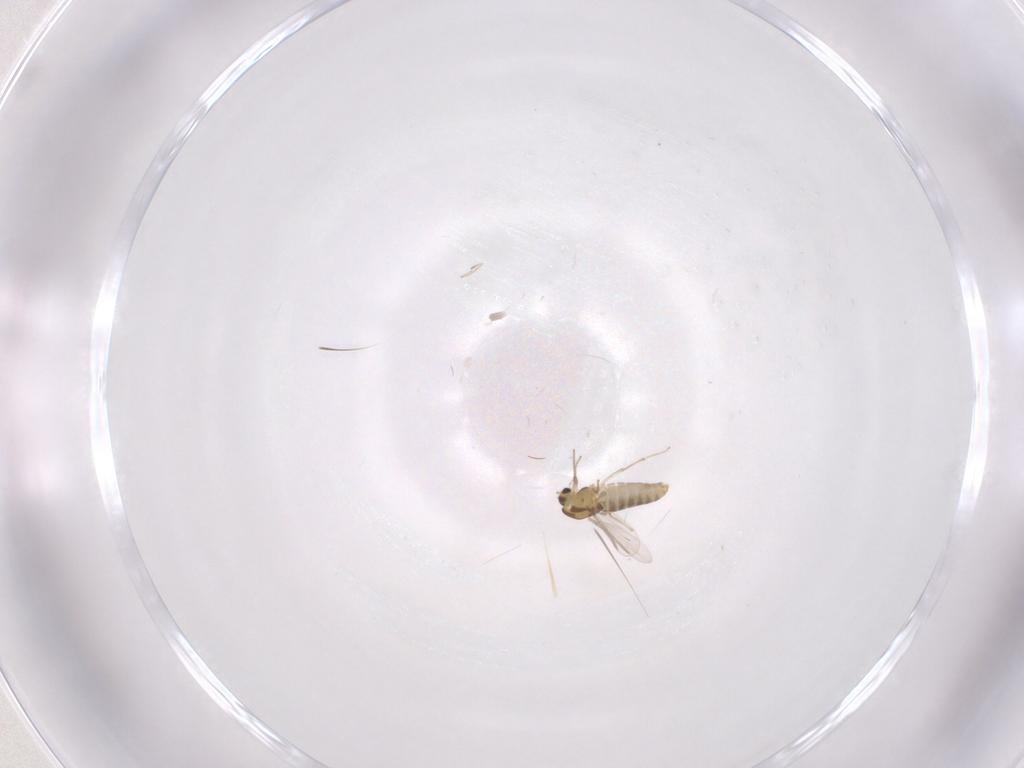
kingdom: Animalia
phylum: Arthropoda
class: Insecta
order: Diptera
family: Chironomidae
